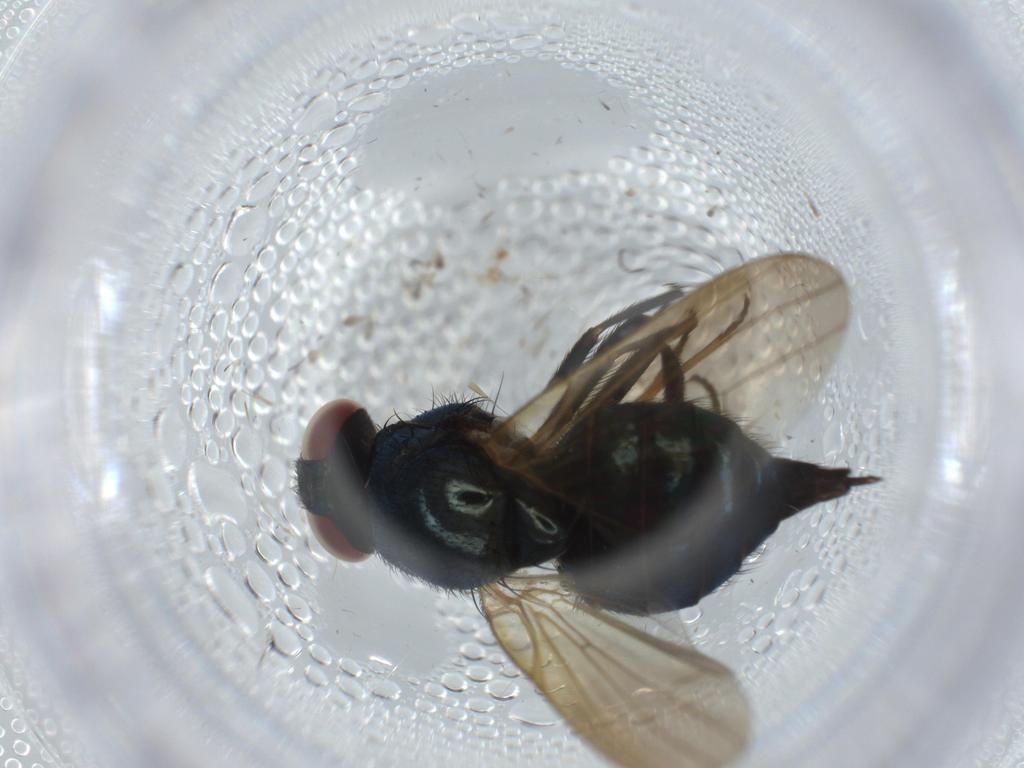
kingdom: Animalia
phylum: Arthropoda
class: Insecta
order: Diptera
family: Lonchaeidae
